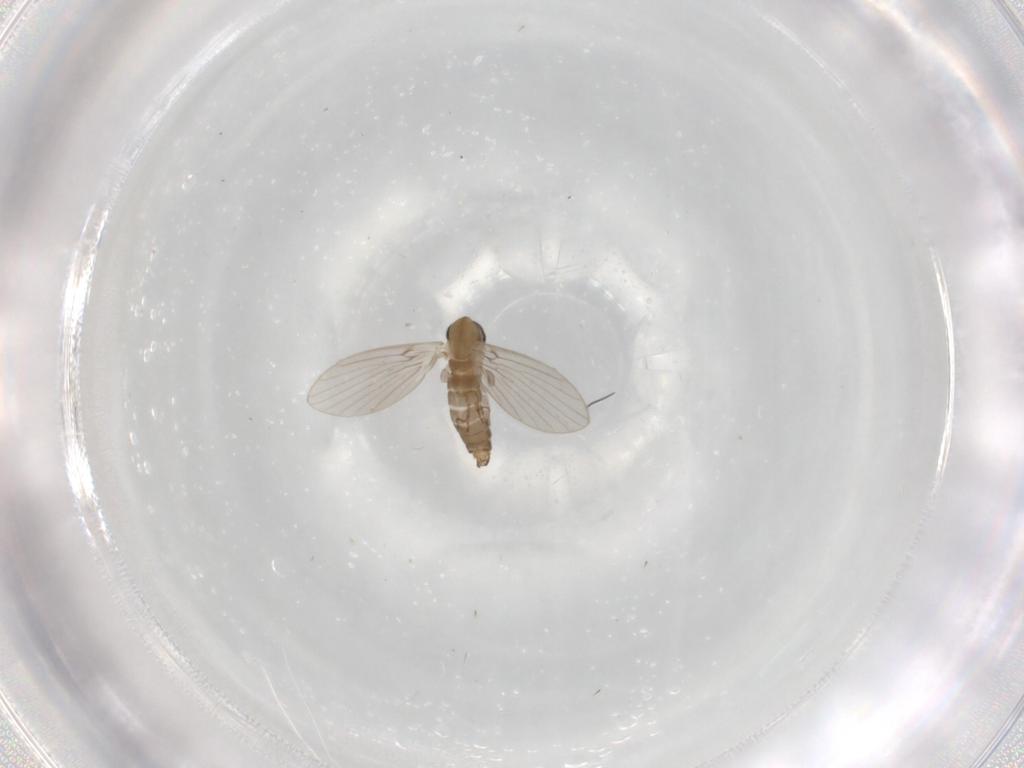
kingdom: Animalia
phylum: Arthropoda
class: Insecta
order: Diptera
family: Psychodidae
